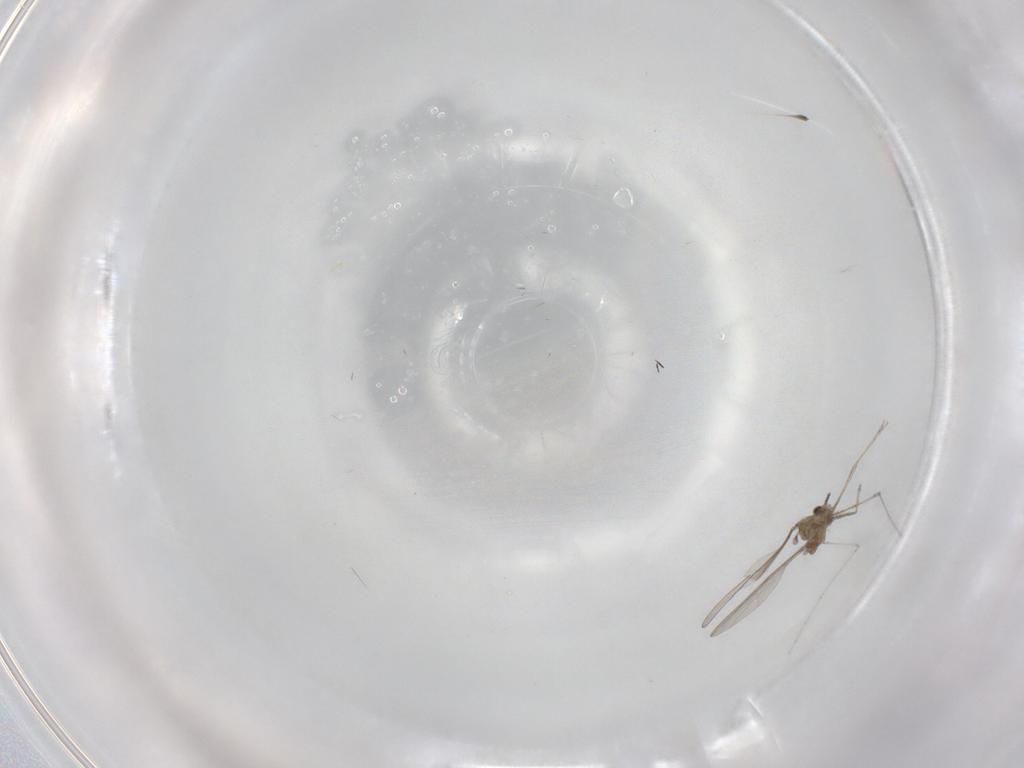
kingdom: Animalia
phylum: Arthropoda
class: Insecta
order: Diptera
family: Cecidomyiidae
